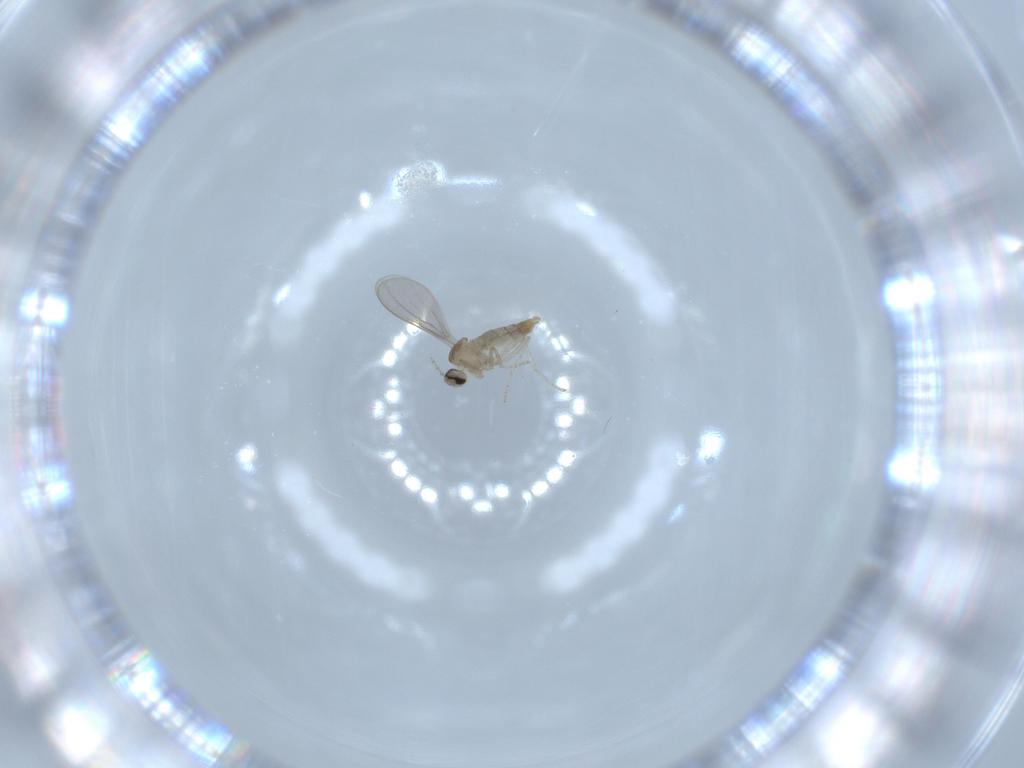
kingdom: Animalia
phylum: Arthropoda
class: Insecta
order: Diptera
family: Cecidomyiidae
